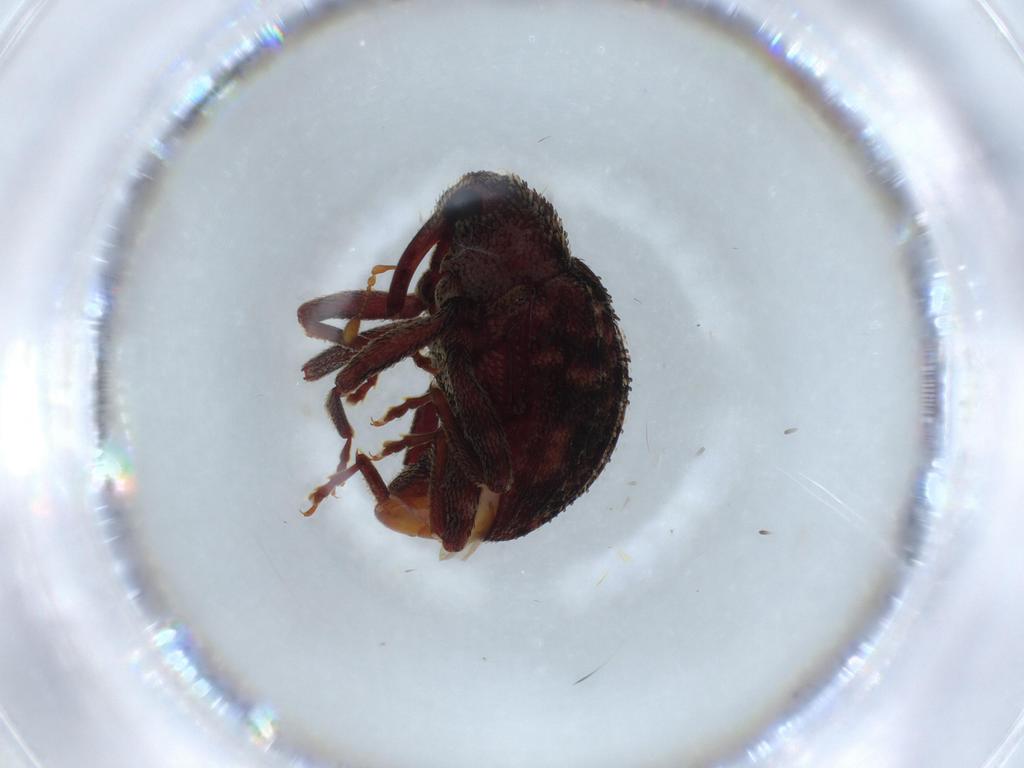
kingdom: Animalia
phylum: Arthropoda
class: Insecta
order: Coleoptera
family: Curculionidae
